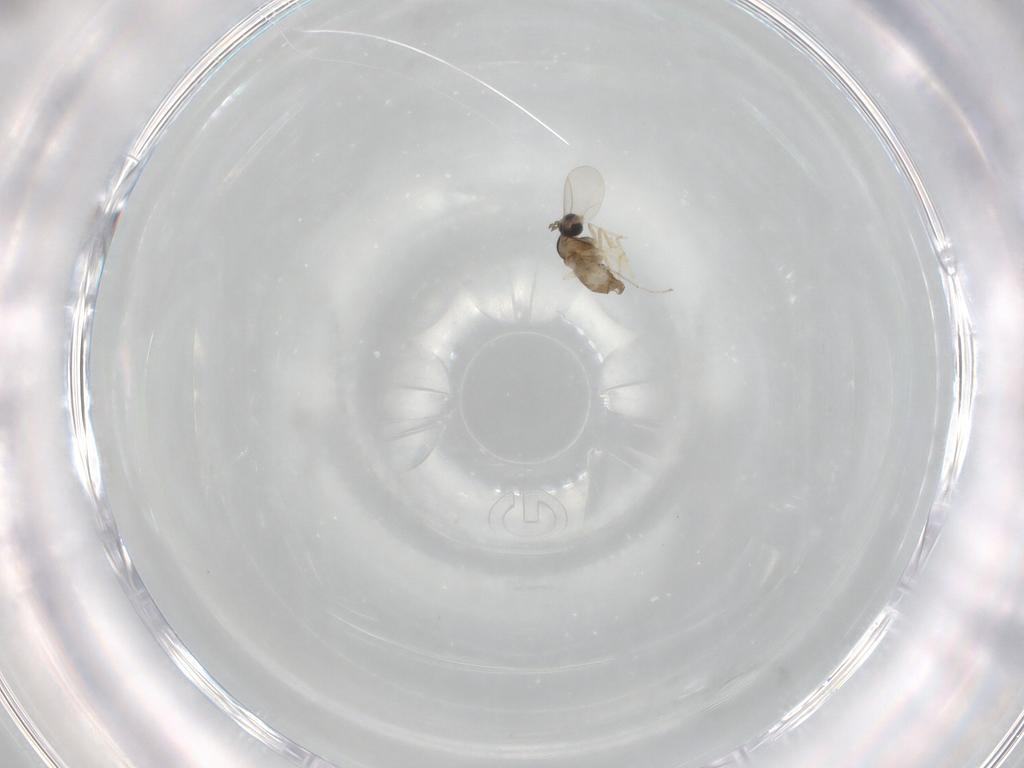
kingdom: Animalia
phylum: Arthropoda
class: Insecta
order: Diptera
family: Cecidomyiidae
